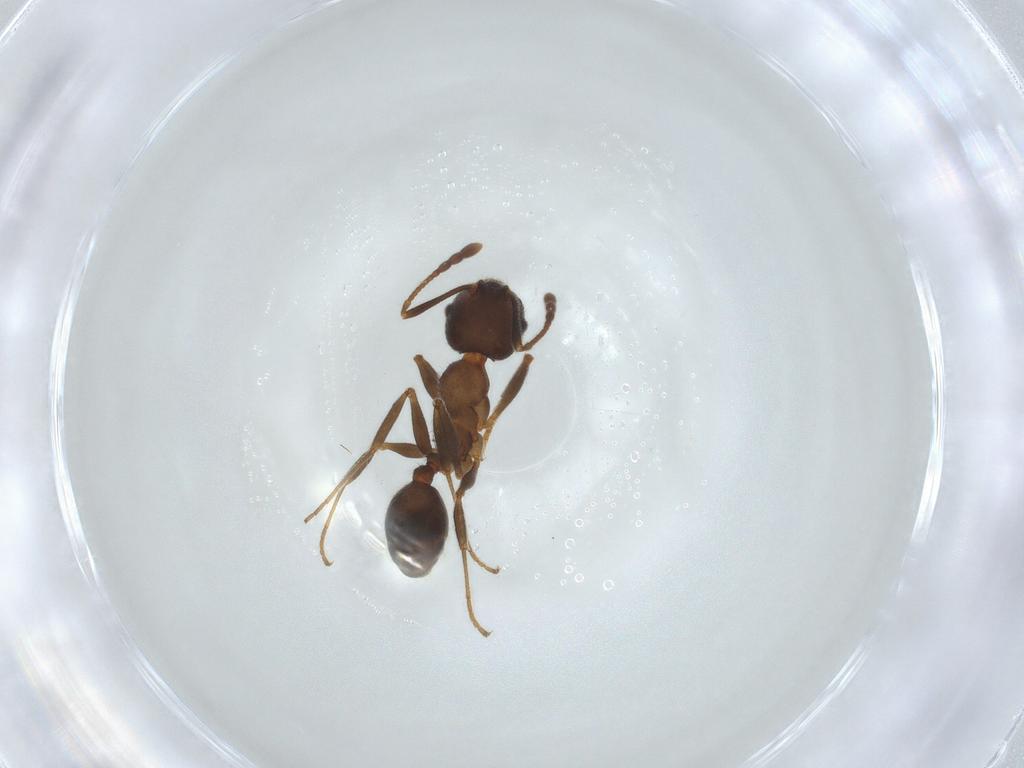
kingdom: Animalia
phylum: Arthropoda
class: Insecta
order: Hymenoptera
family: Formicidae
